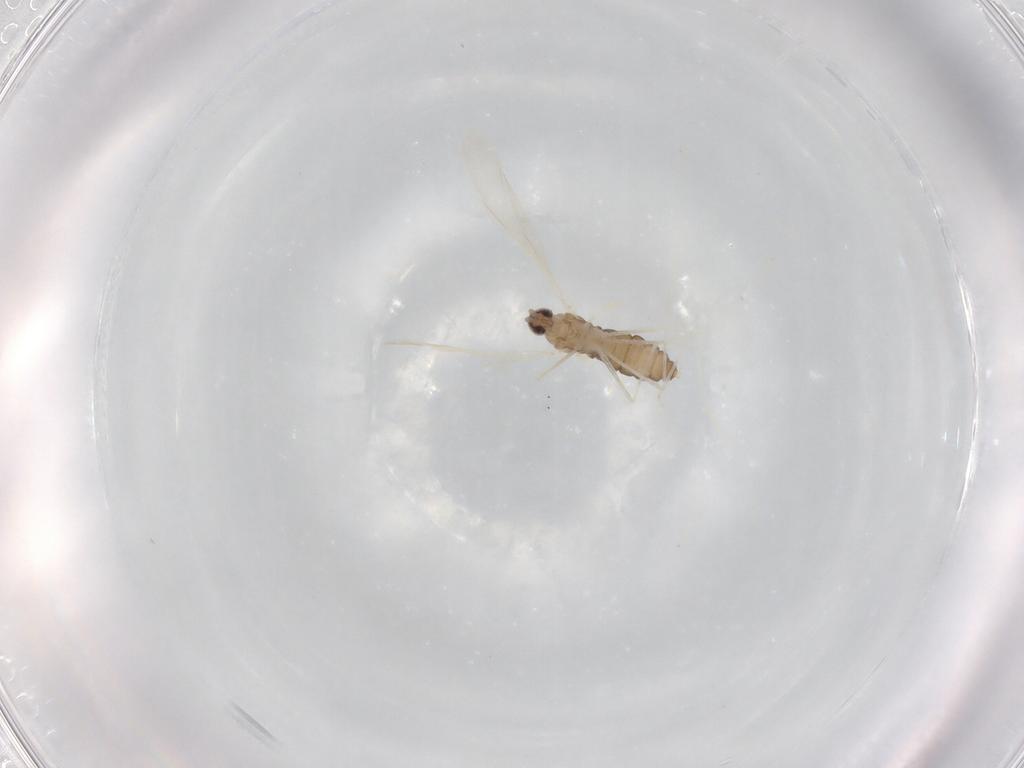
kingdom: Animalia
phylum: Arthropoda
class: Insecta
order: Diptera
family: Cecidomyiidae
